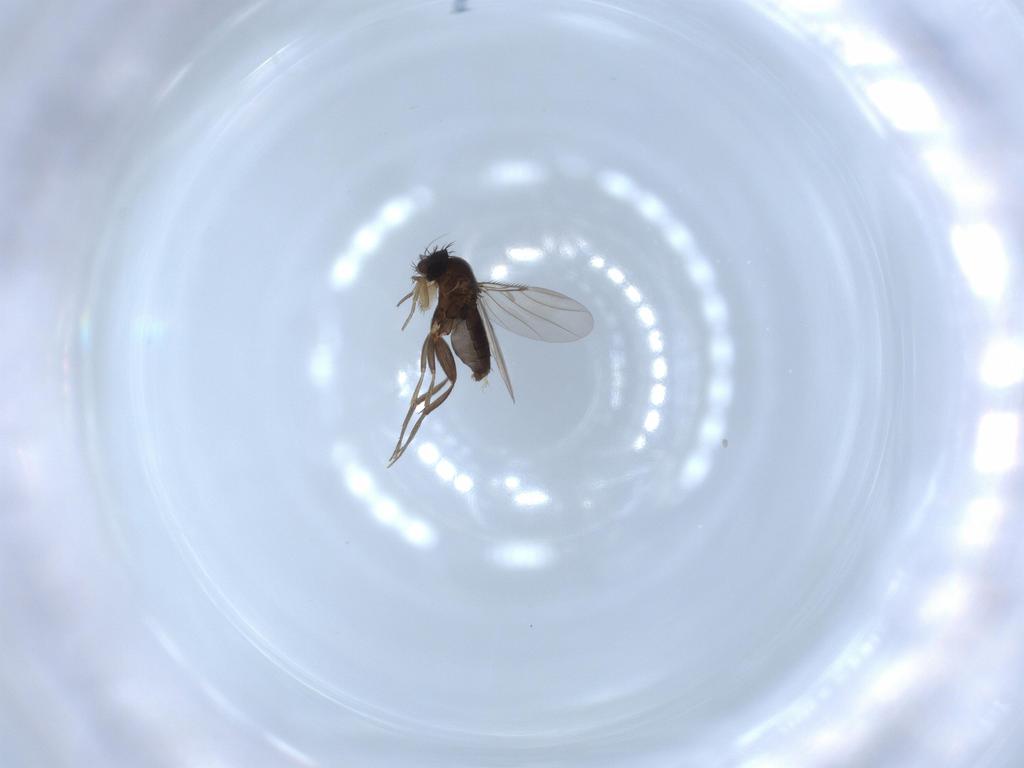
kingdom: Animalia
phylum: Arthropoda
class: Insecta
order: Diptera
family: Phoridae
